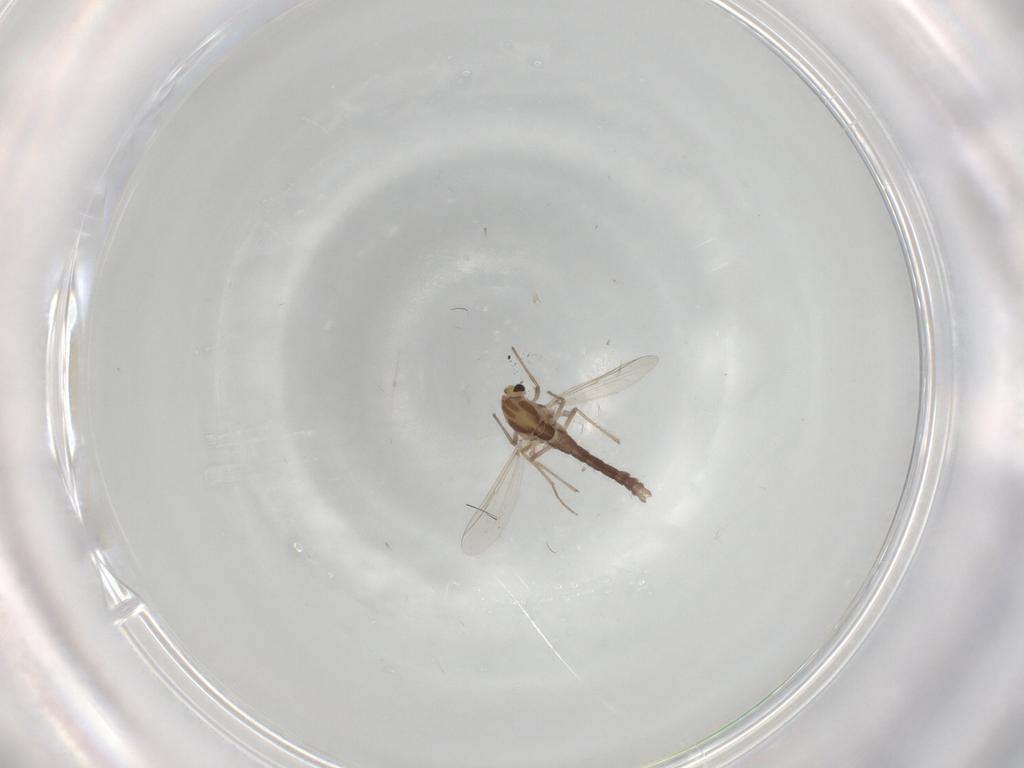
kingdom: Animalia
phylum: Arthropoda
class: Insecta
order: Diptera
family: Chironomidae
